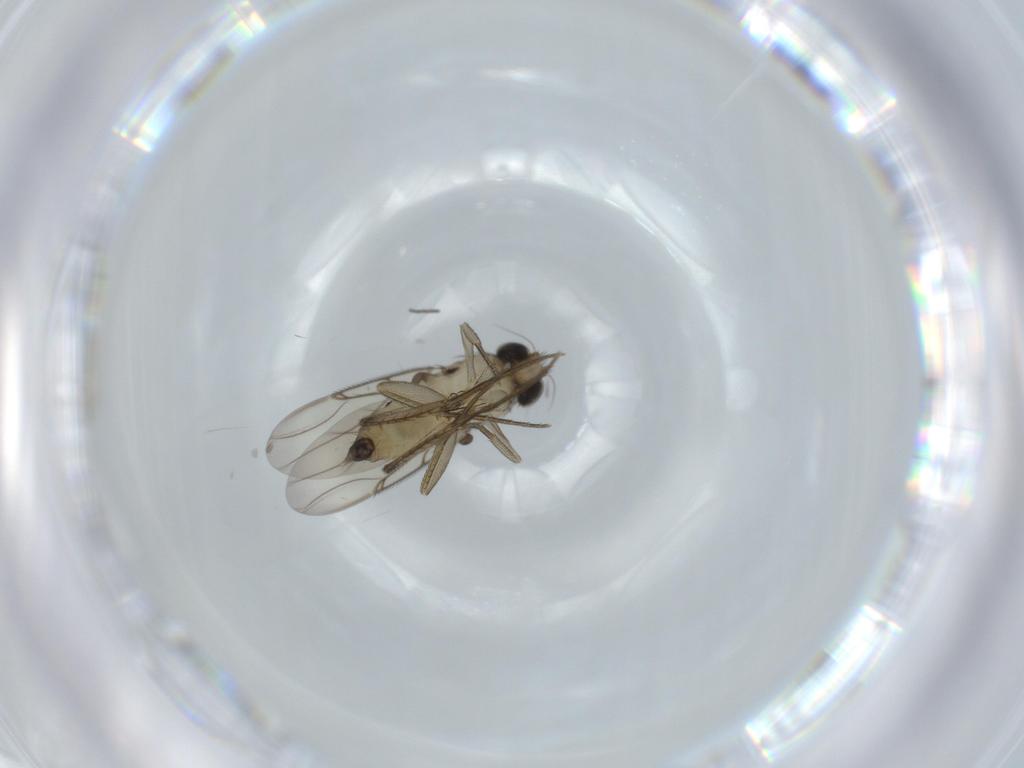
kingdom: Animalia
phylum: Arthropoda
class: Insecta
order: Diptera
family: Phoridae
